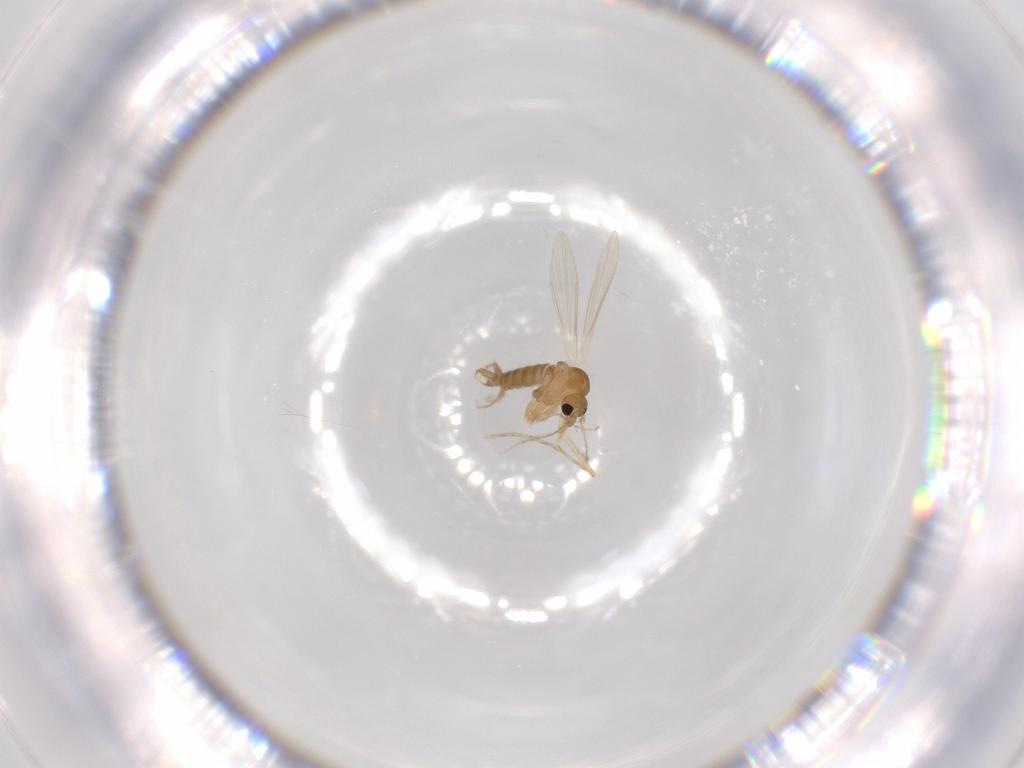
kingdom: Animalia
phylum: Arthropoda
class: Insecta
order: Diptera
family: Psychodidae
